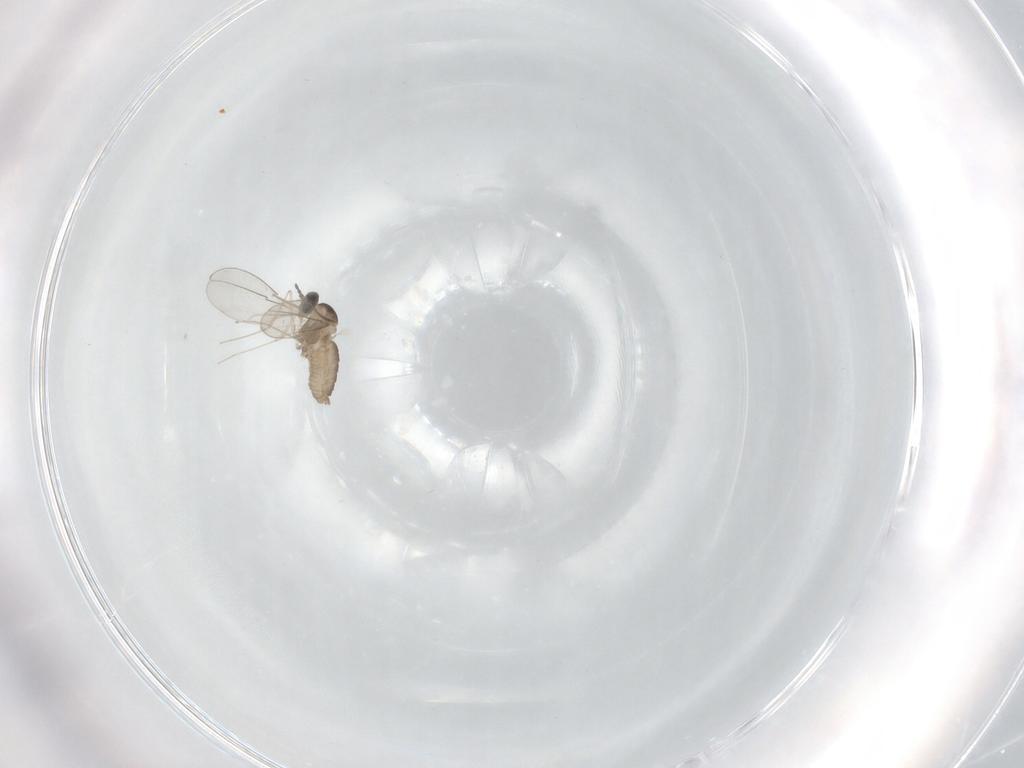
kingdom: Animalia
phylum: Arthropoda
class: Insecta
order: Diptera
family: Cecidomyiidae
